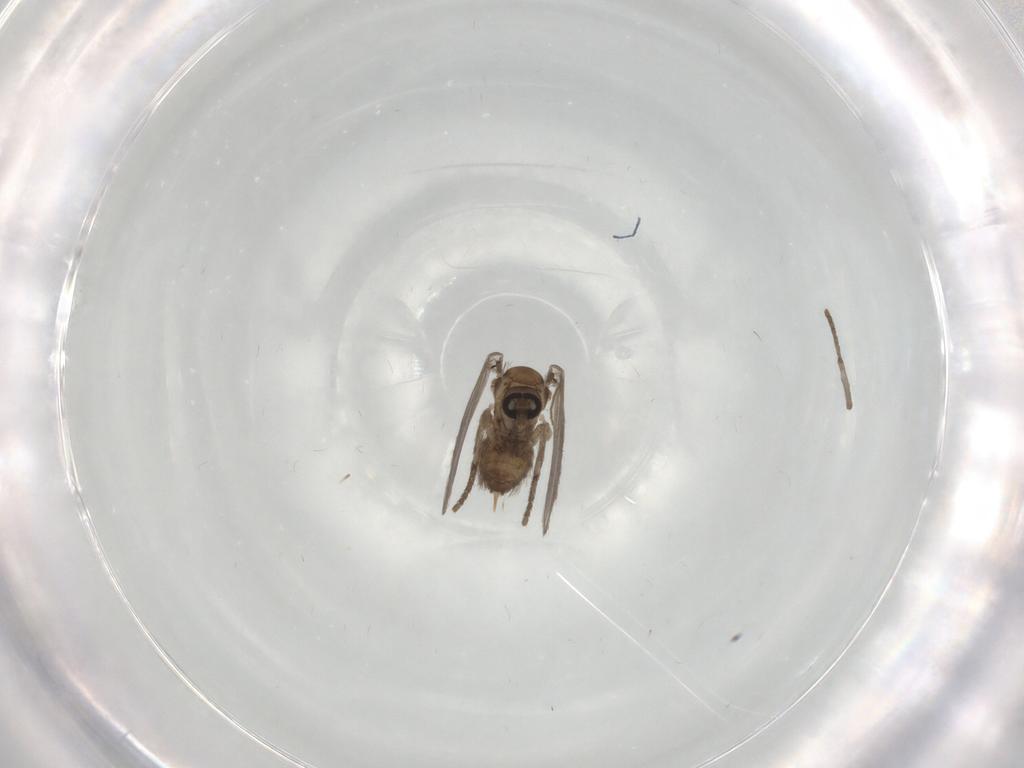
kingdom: Animalia
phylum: Arthropoda
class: Insecta
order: Diptera
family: Psychodidae
